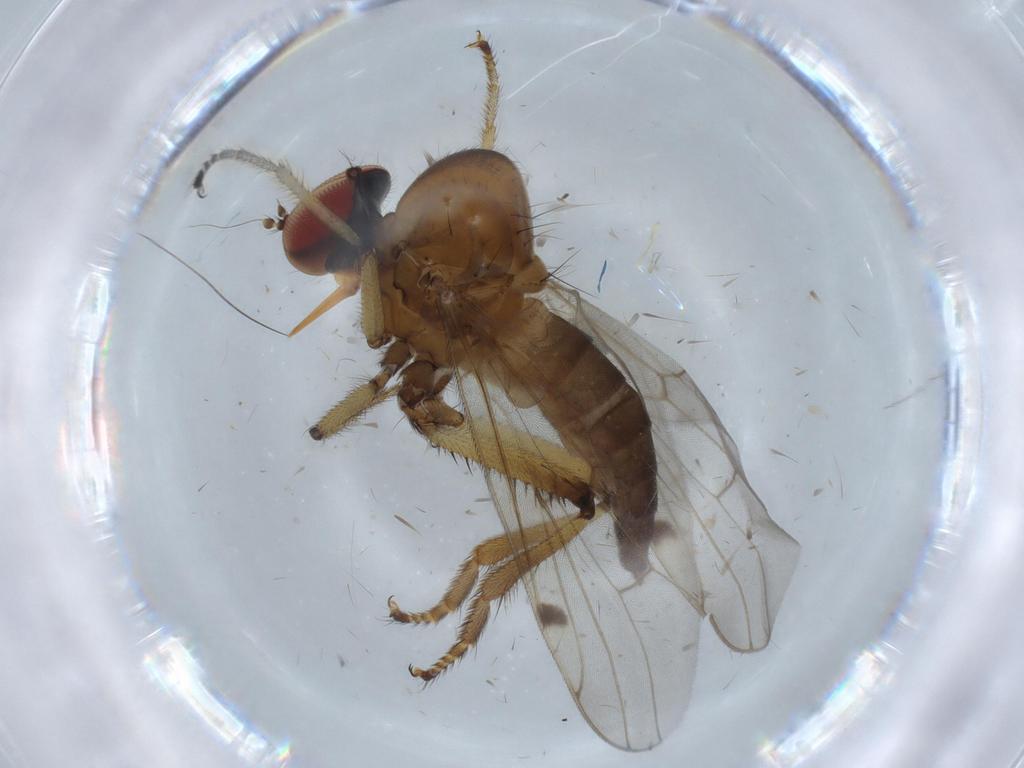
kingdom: Animalia
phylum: Arthropoda
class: Insecta
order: Diptera
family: Hybotidae
